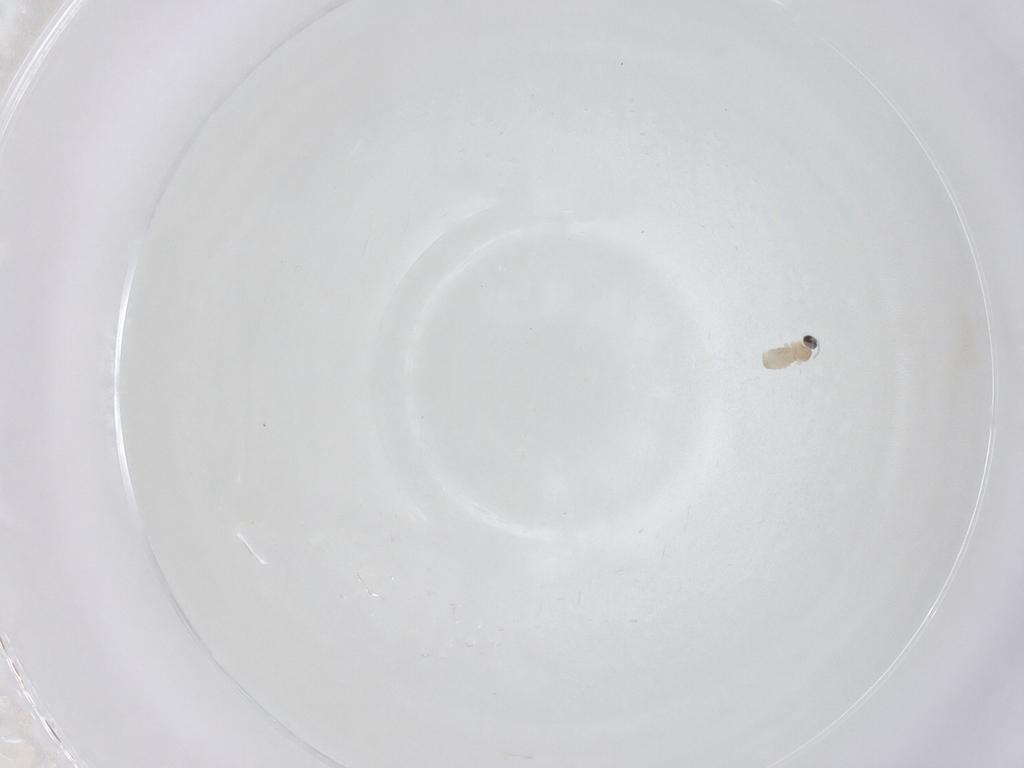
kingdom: Animalia
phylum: Arthropoda
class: Insecta
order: Diptera
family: Cecidomyiidae
